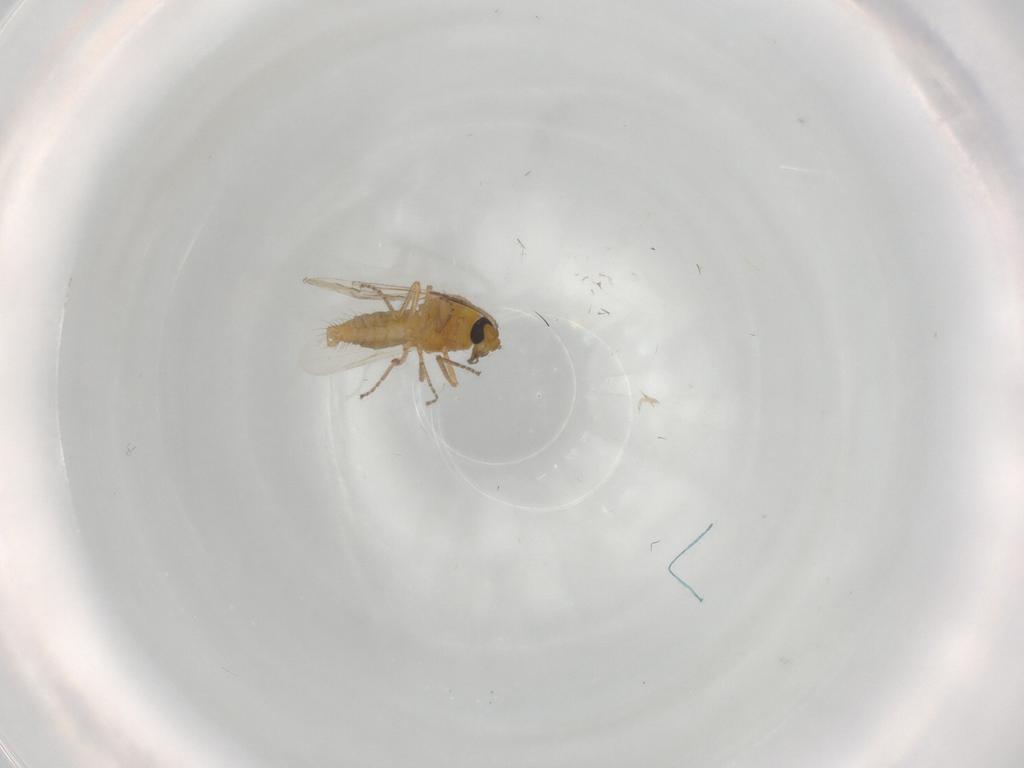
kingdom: Animalia
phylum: Arthropoda
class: Insecta
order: Diptera
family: Ceratopogonidae
